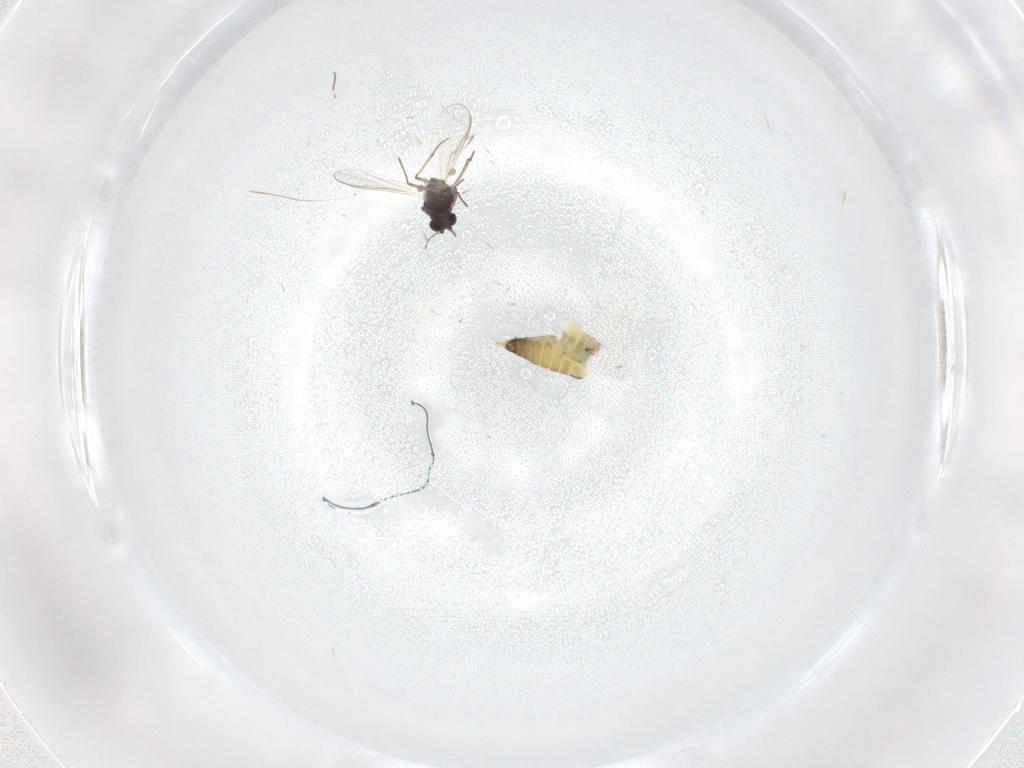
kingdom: Animalia
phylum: Arthropoda
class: Insecta
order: Diptera
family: Chironomidae
